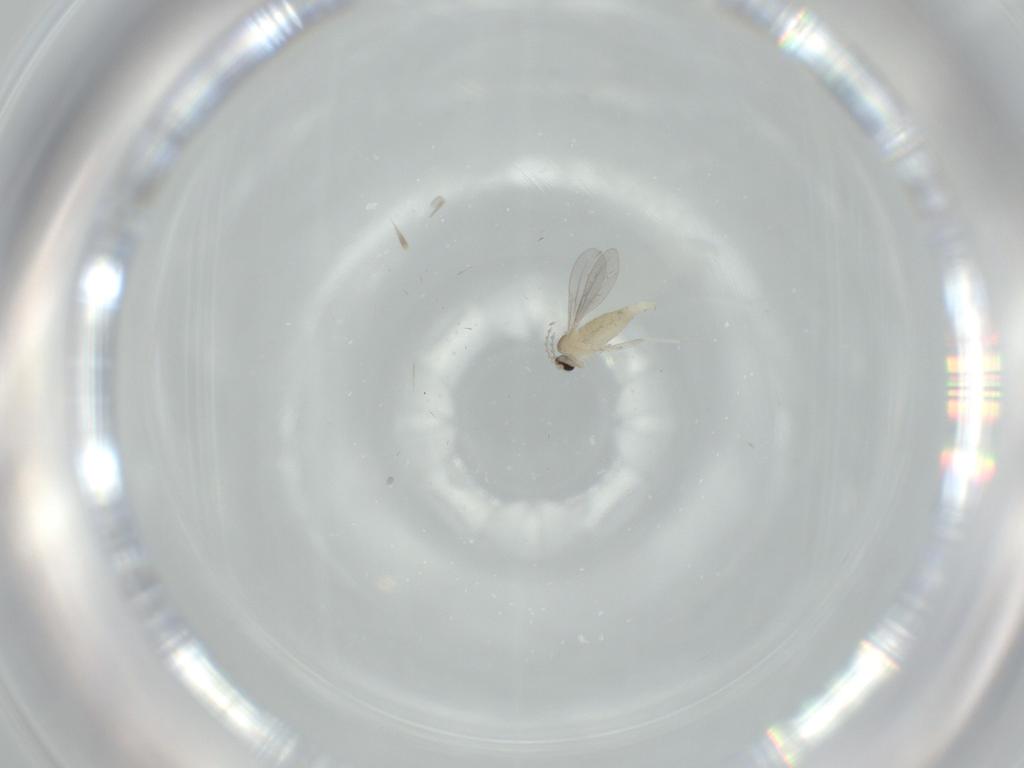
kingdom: Animalia
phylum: Arthropoda
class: Insecta
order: Diptera
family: Cecidomyiidae
